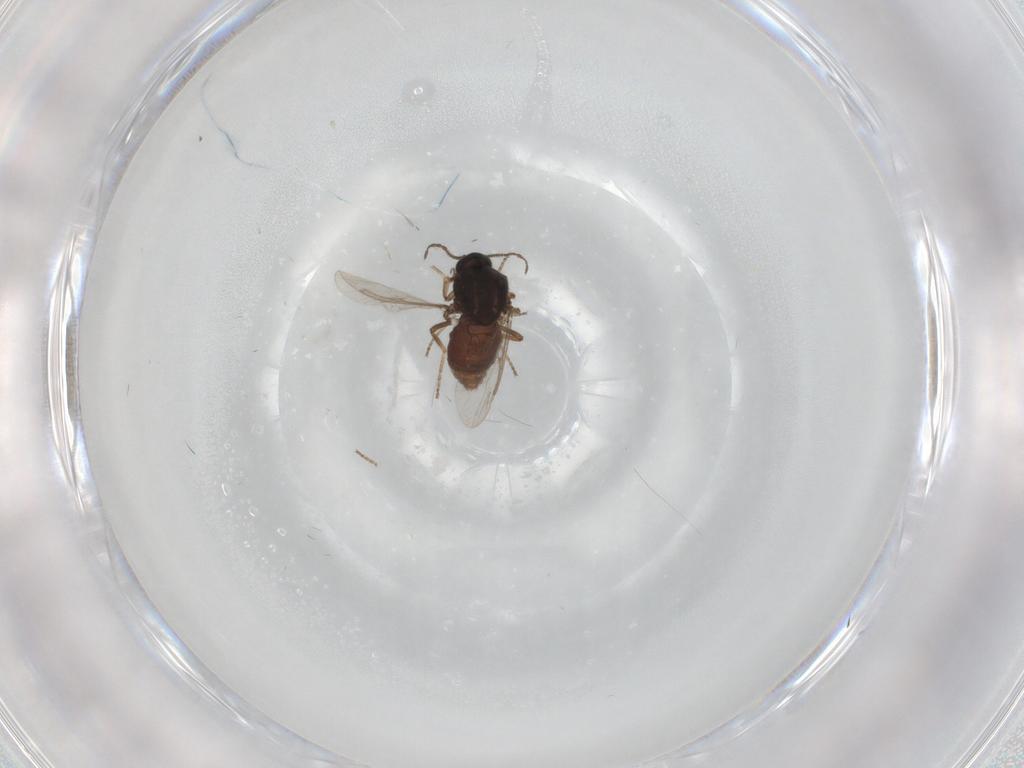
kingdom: Animalia
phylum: Arthropoda
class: Insecta
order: Diptera
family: Ceratopogonidae
